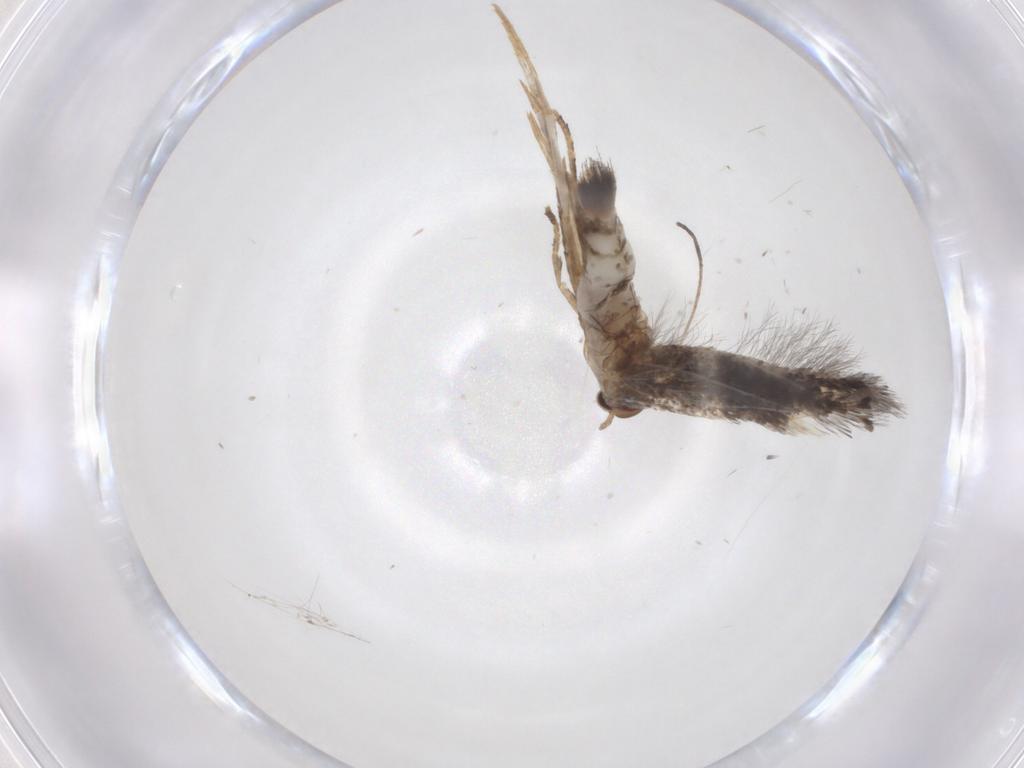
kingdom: Animalia
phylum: Arthropoda
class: Insecta
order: Lepidoptera
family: Elachistidae
